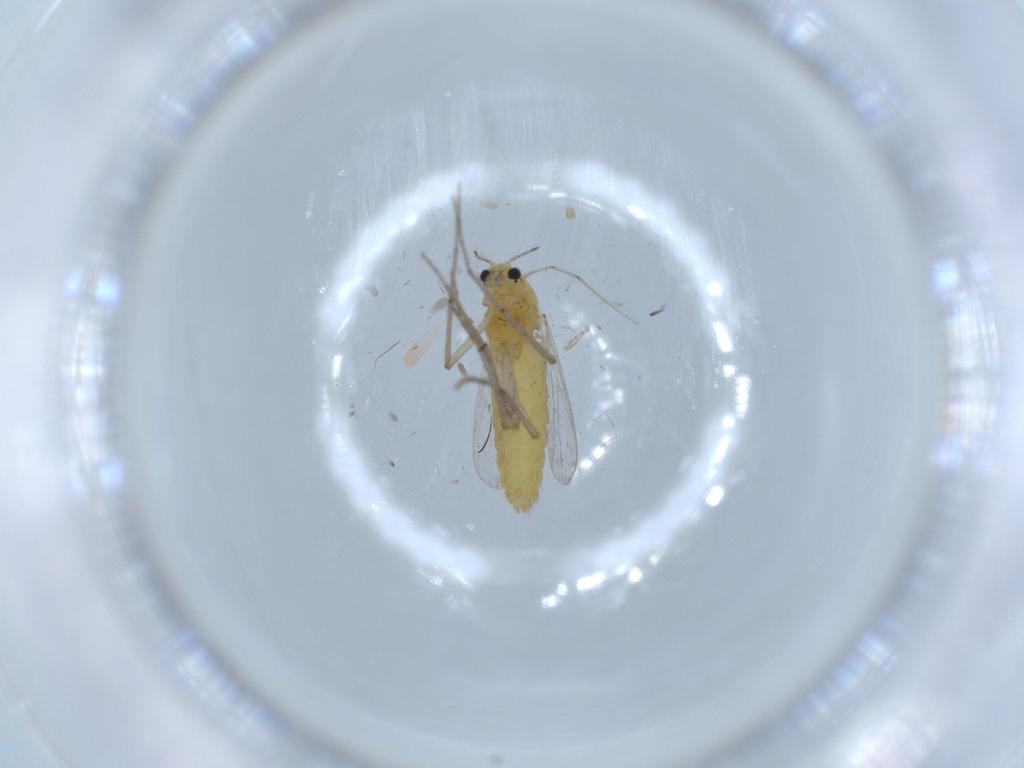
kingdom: Animalia
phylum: Arthropoda
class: Insecta
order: Diptera
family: Chironomidae
